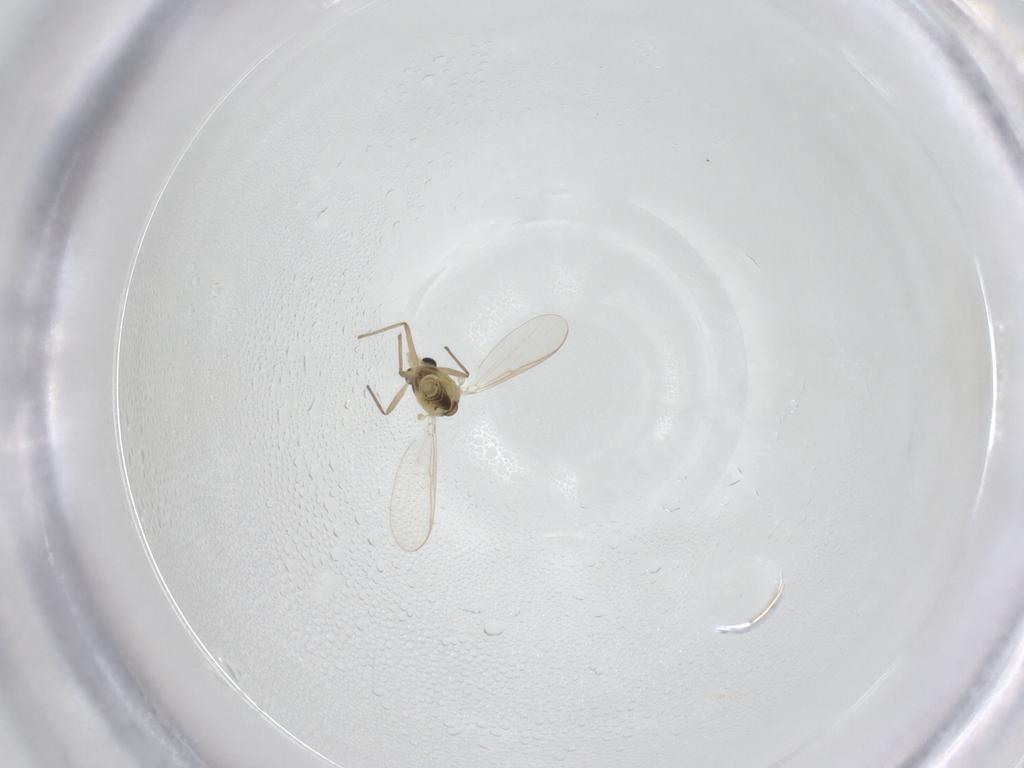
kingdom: Animalia
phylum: Arthropoda
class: Insecta
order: Diptera
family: Chironomidae
